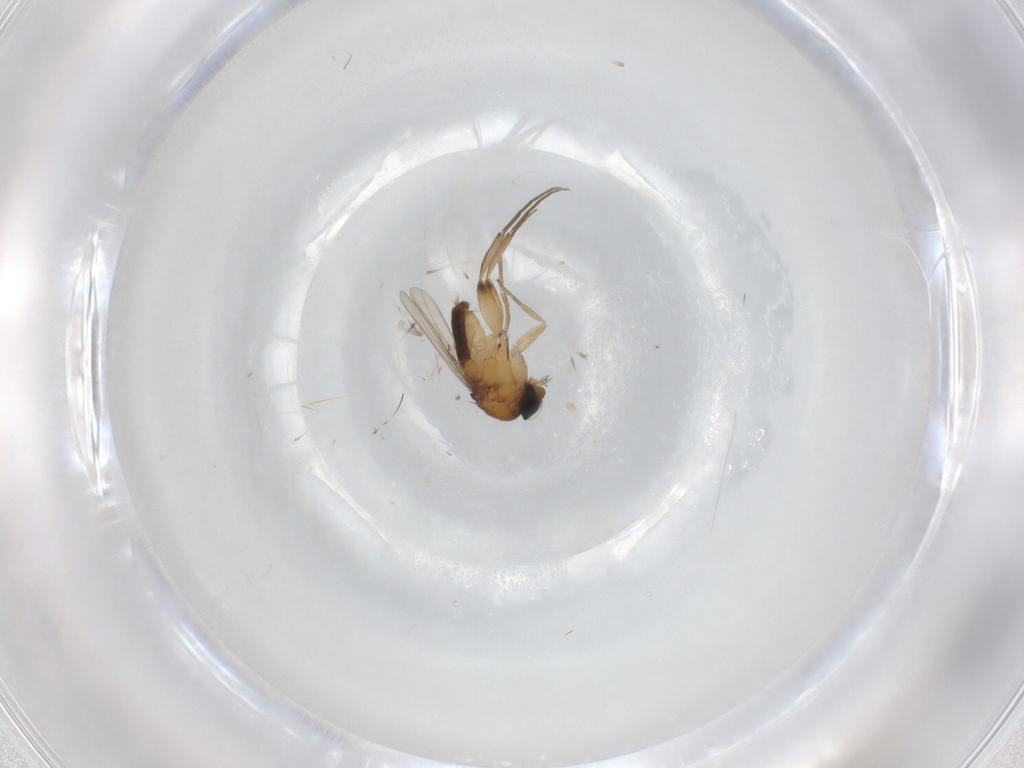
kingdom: Animalia
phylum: Arthropoda
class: Insecta
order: Diptera
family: Phoridae
